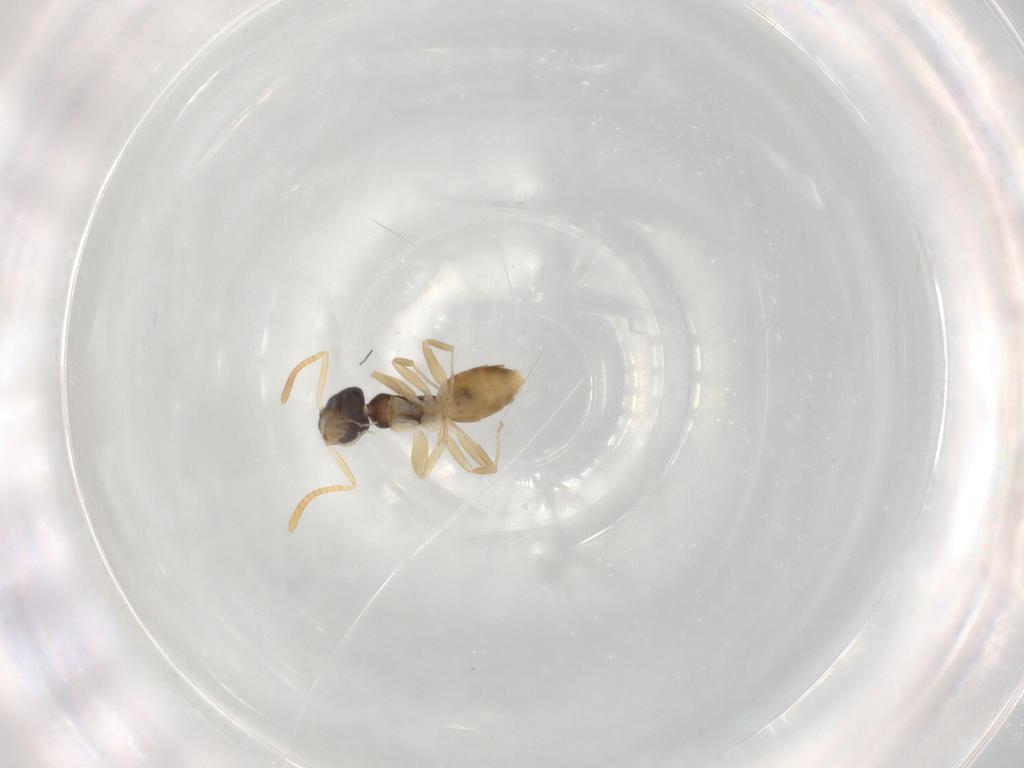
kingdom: Animalia
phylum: Arthropoda
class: Insecta
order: Hymenoptera
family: Formicidae
